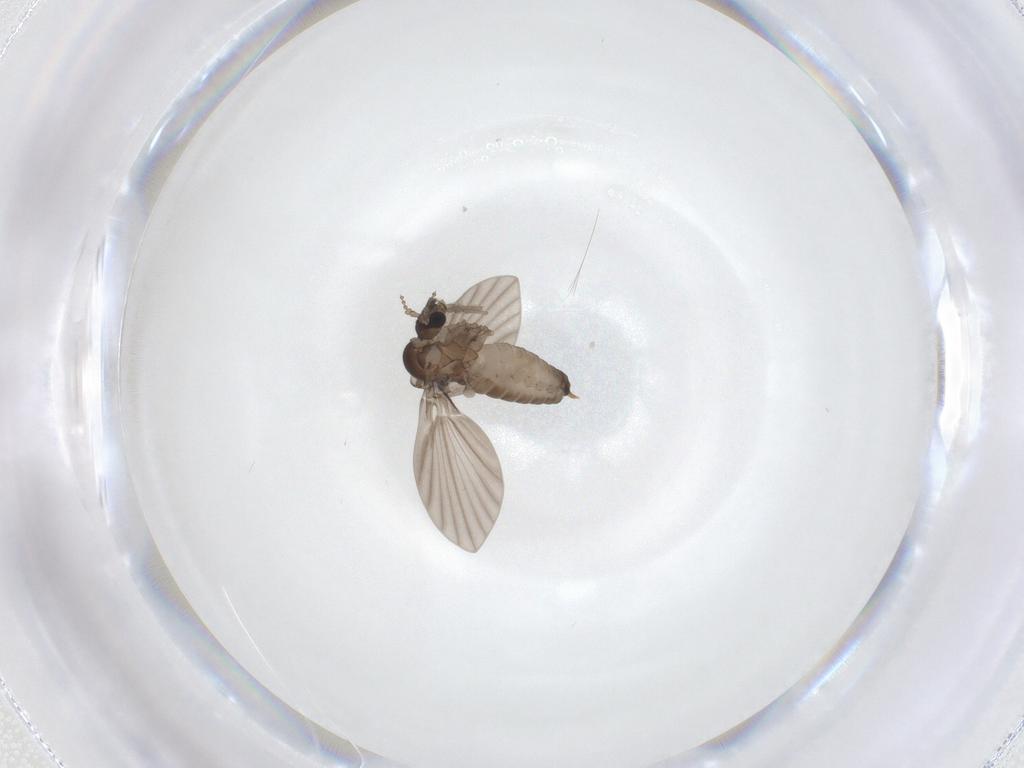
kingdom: Animalia
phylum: Arthropoda
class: Insecta
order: Diptera
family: Psychodidae
